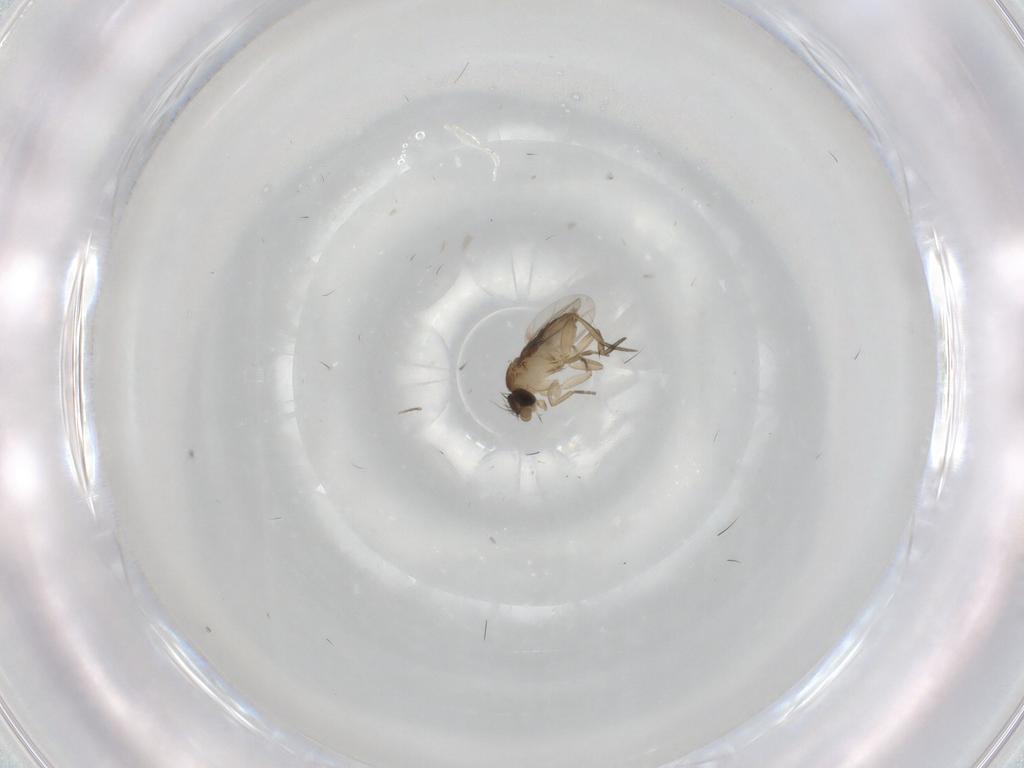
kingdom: Animalia
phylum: Arthropoda
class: Insecta
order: Diptera
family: Phoridae
